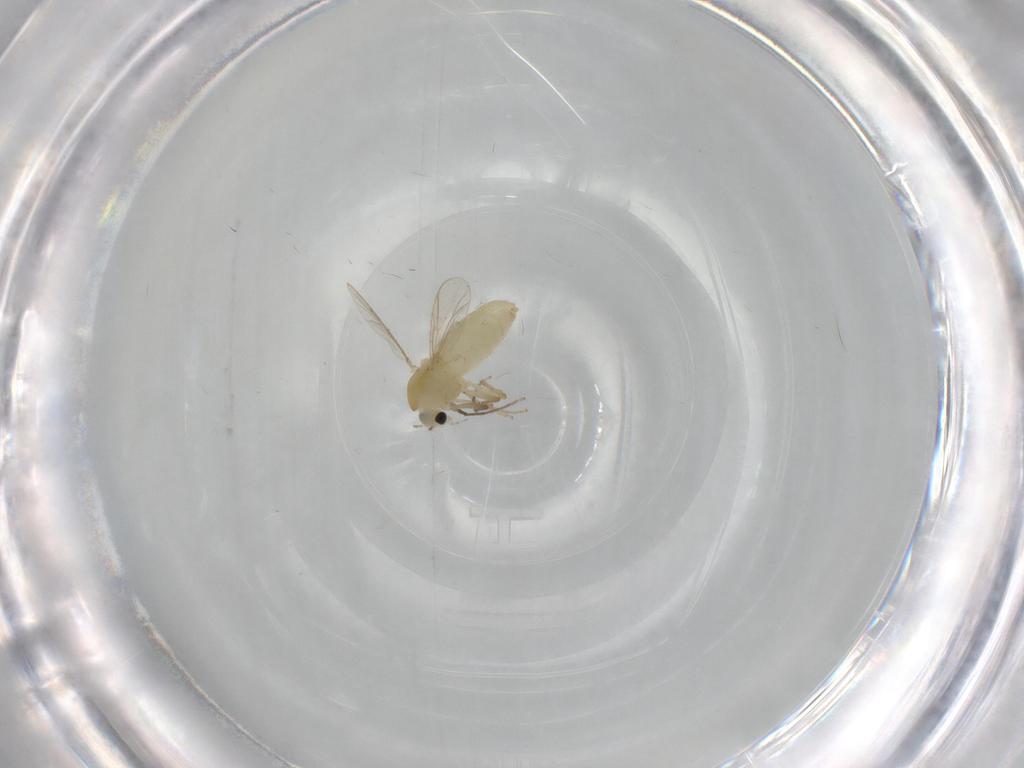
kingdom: Animalia
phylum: Arthropoda
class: Insecta
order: Diptera
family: Chironomidae
